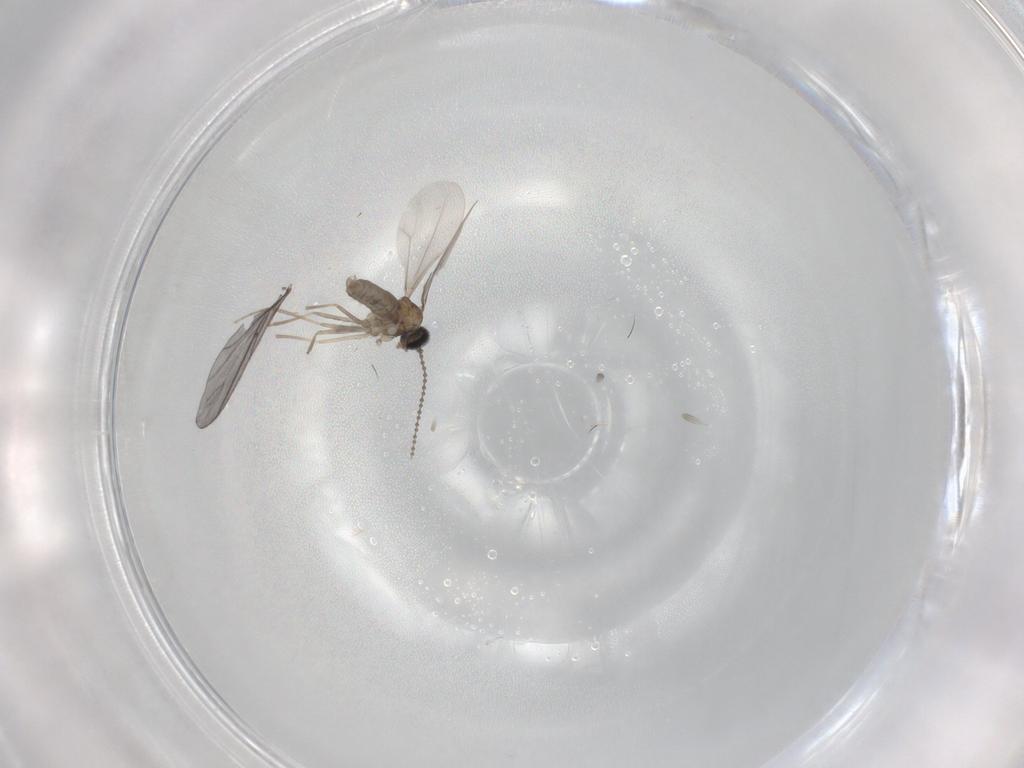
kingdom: Animalia
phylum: Arthropoda
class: Insecta
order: Diptera
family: Cecidomyiidae
